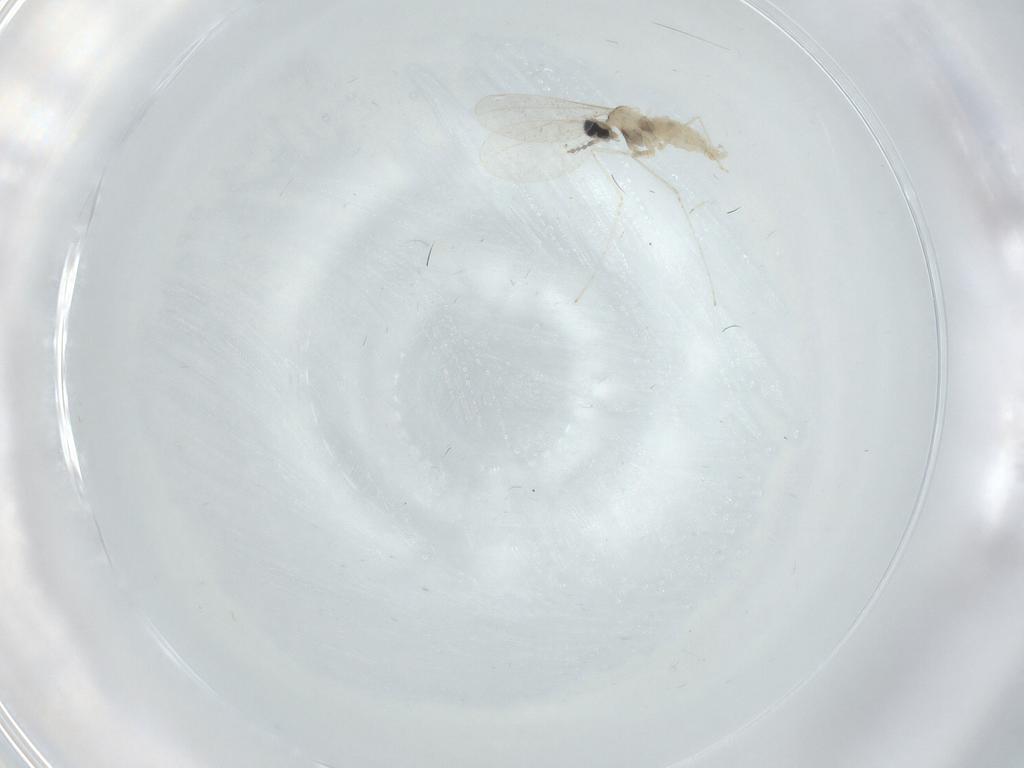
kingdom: Animalia
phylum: Arthropoda
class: Insecta
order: Diptera
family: Cecidomyiidae
